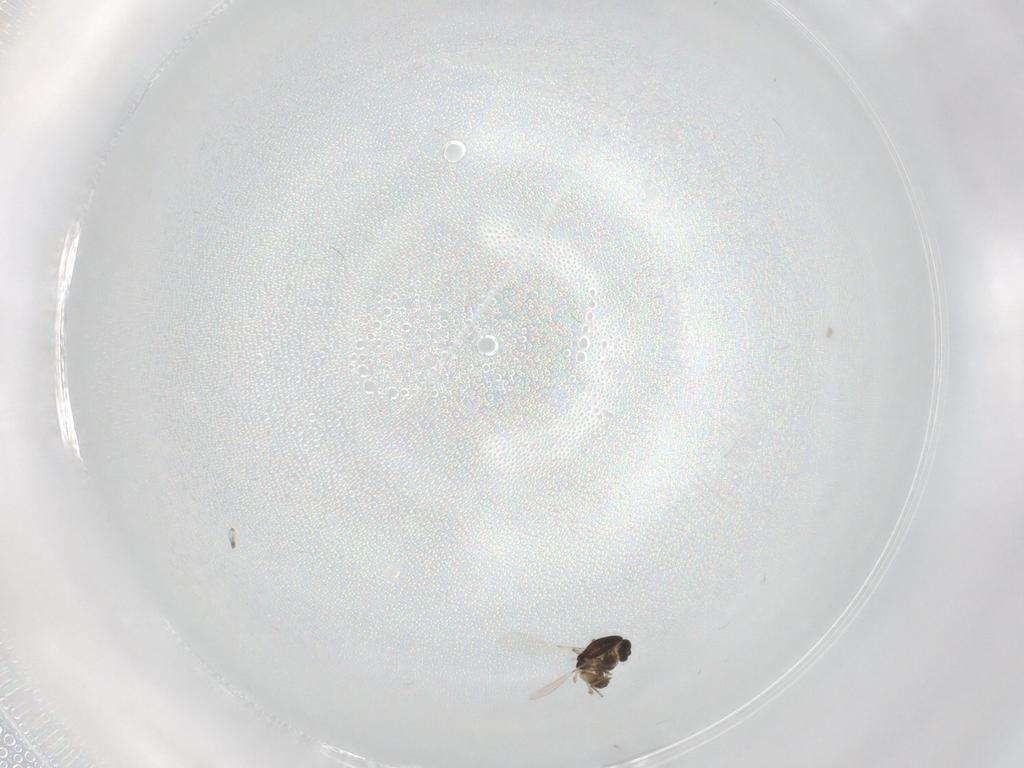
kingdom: Animalia
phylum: Arthropoda
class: Insecta
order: Diptera
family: Chironomidae
